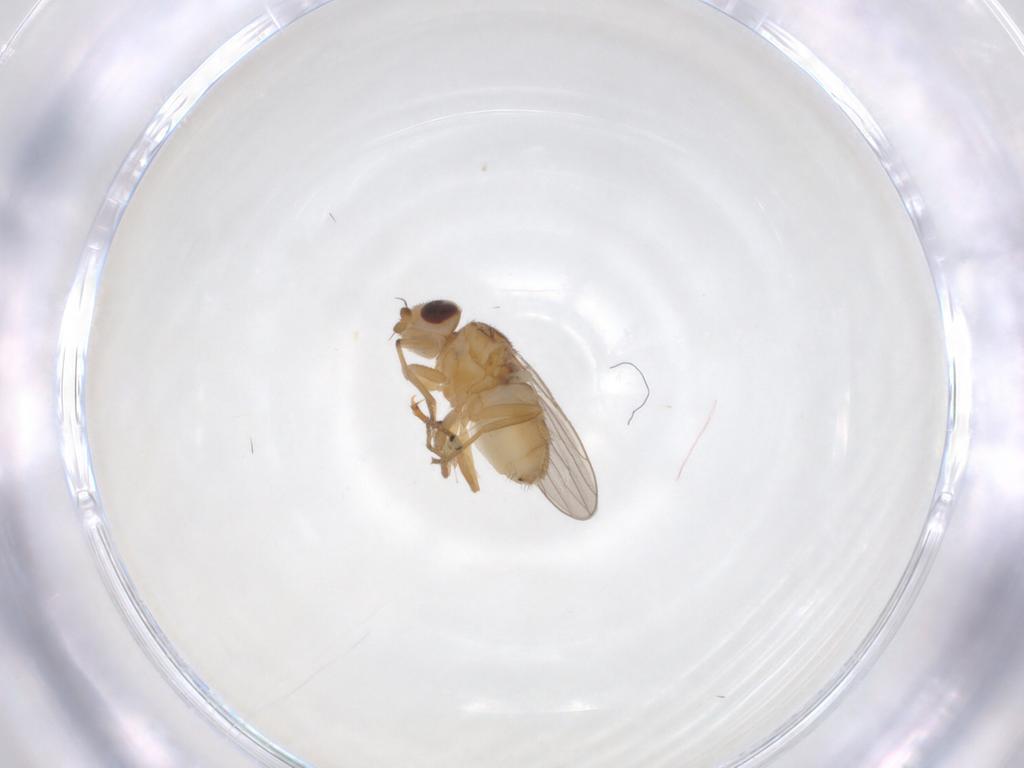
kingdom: Animalia
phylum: Arthropoda
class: Insecta
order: Diptera
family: Chloropidae
